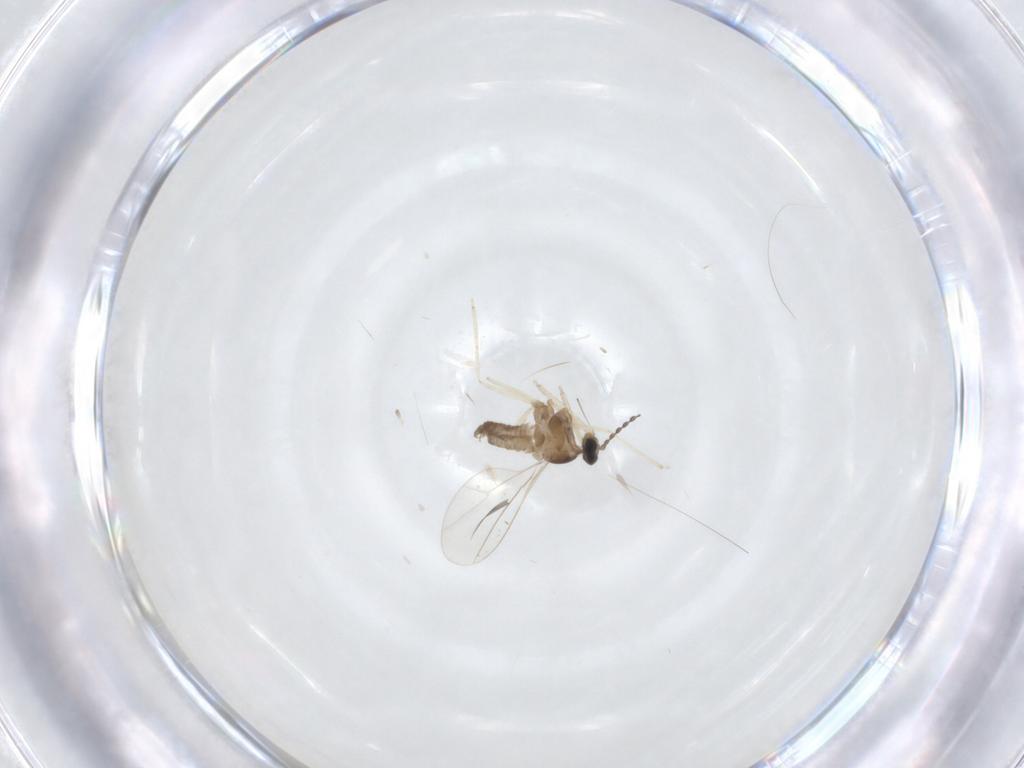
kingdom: Animalia
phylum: Arthropoda
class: Insecta
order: Diptera
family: Cecidomyiidae
